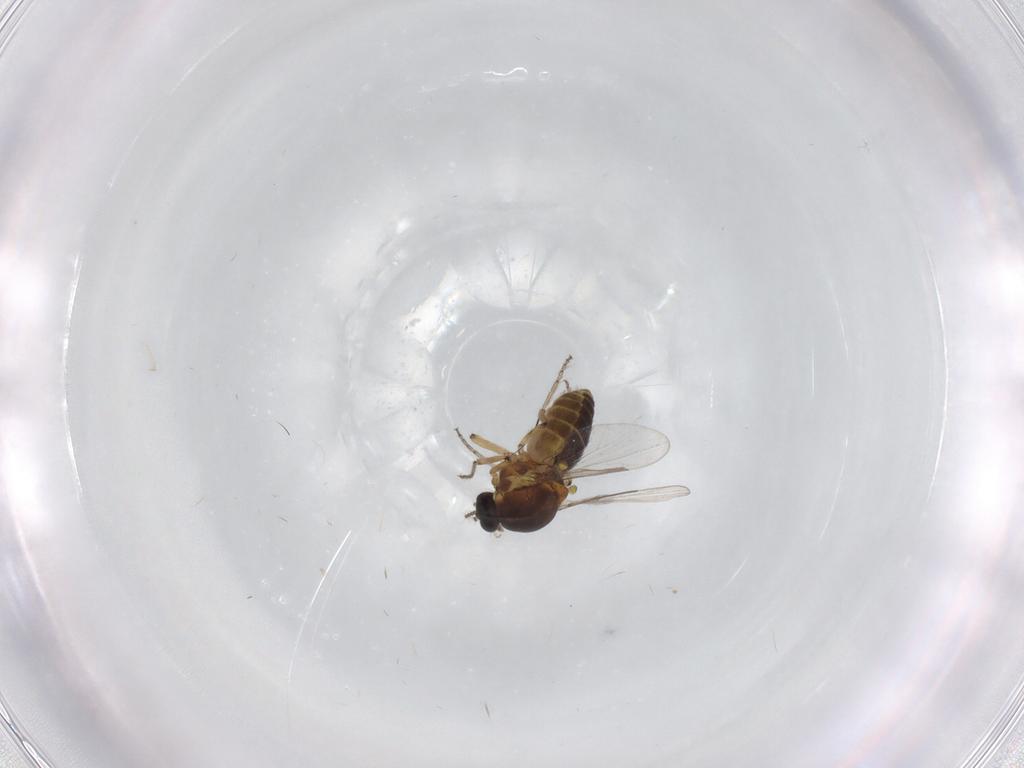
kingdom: Animalia
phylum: Arthropoda
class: Insecta
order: Diptera
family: Ceratopogonidae
